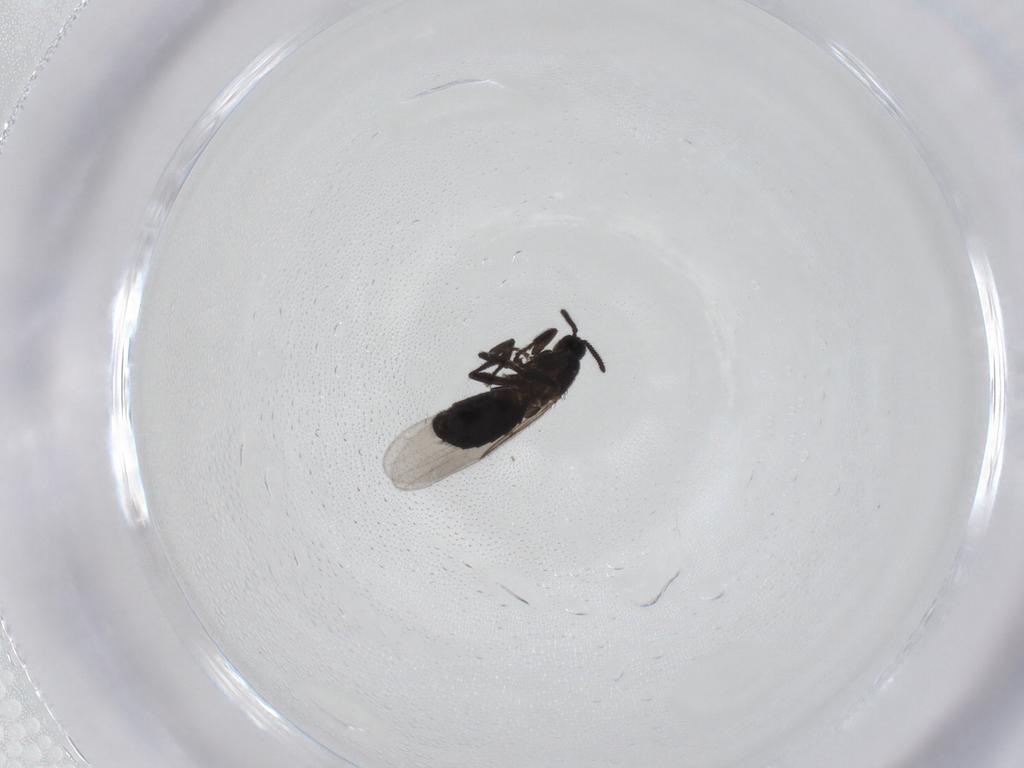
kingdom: Animalia
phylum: Arthropoda
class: Insecta
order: Diptera
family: Scatopsidae
